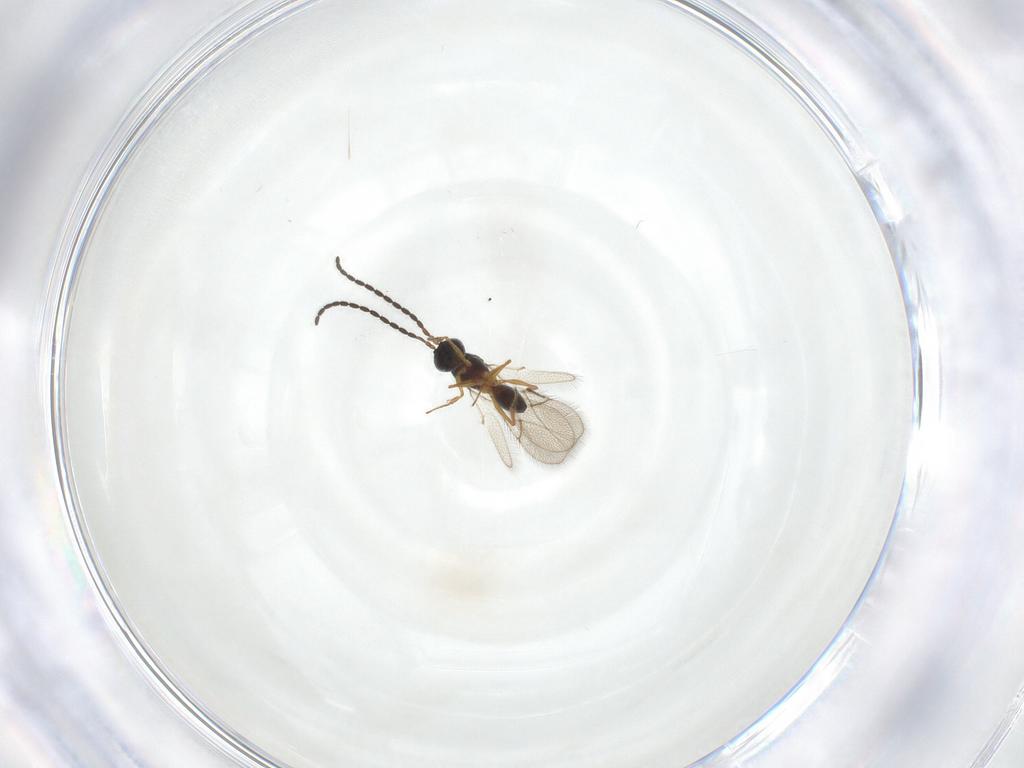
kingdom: Animalia
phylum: Arthropoda
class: Insecta
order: Hymenoptera
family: Figitidae
